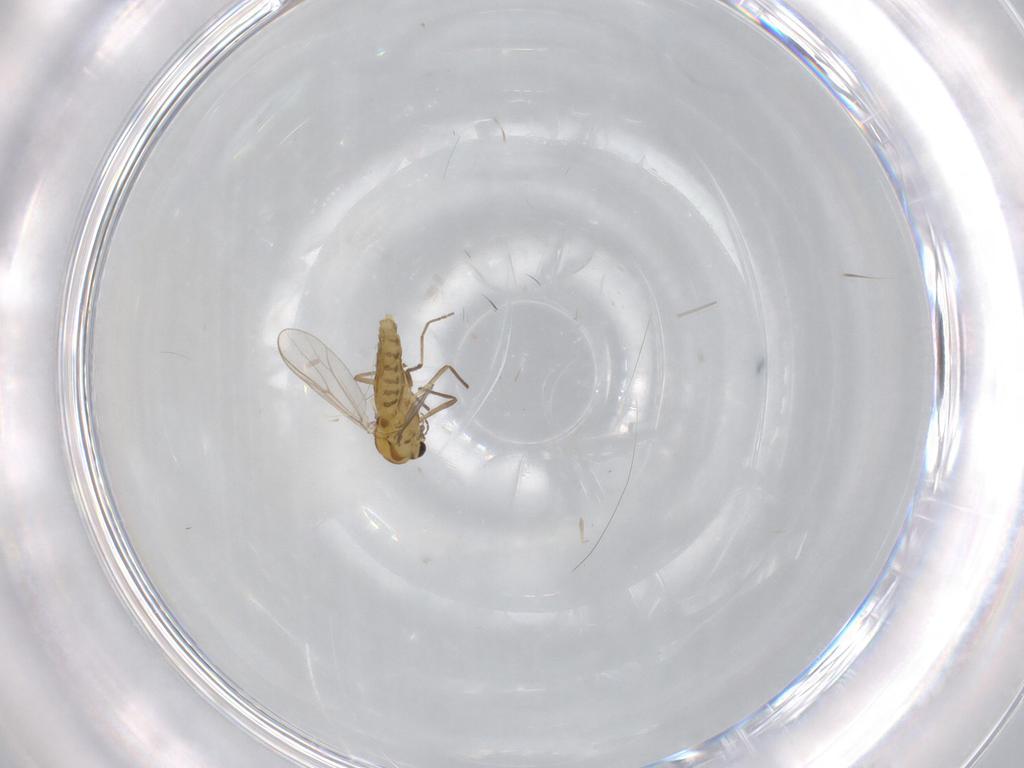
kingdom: Animalia
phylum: Arthropoda
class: Insecta
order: Diptera
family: Chironomidae
